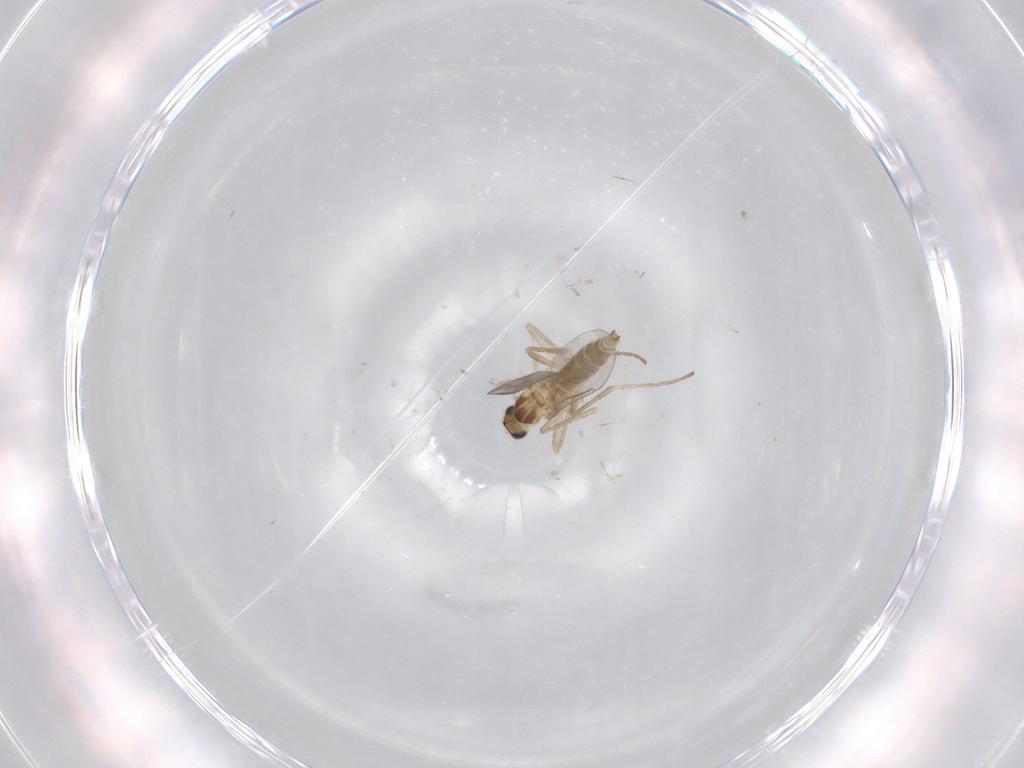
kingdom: Animalia
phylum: Arthropoda
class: Insecta
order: Diptera
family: Cecidomyiidae
